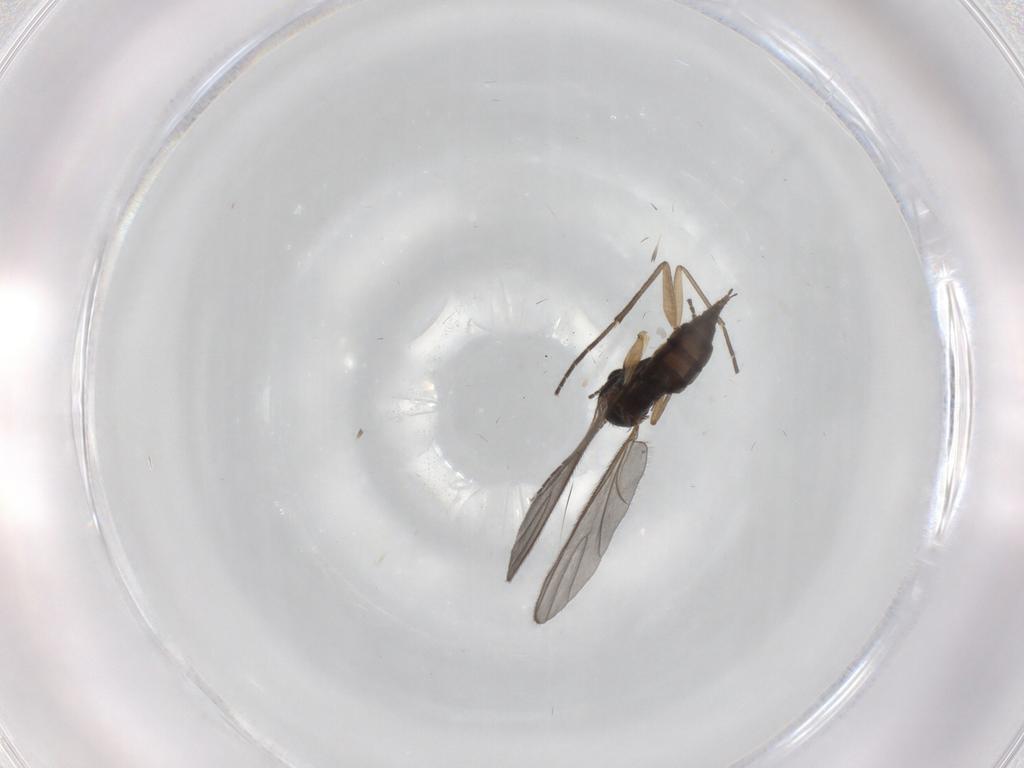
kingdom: Animalia
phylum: Arthropoda
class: Insecta
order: Diptera
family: Sciaridae
